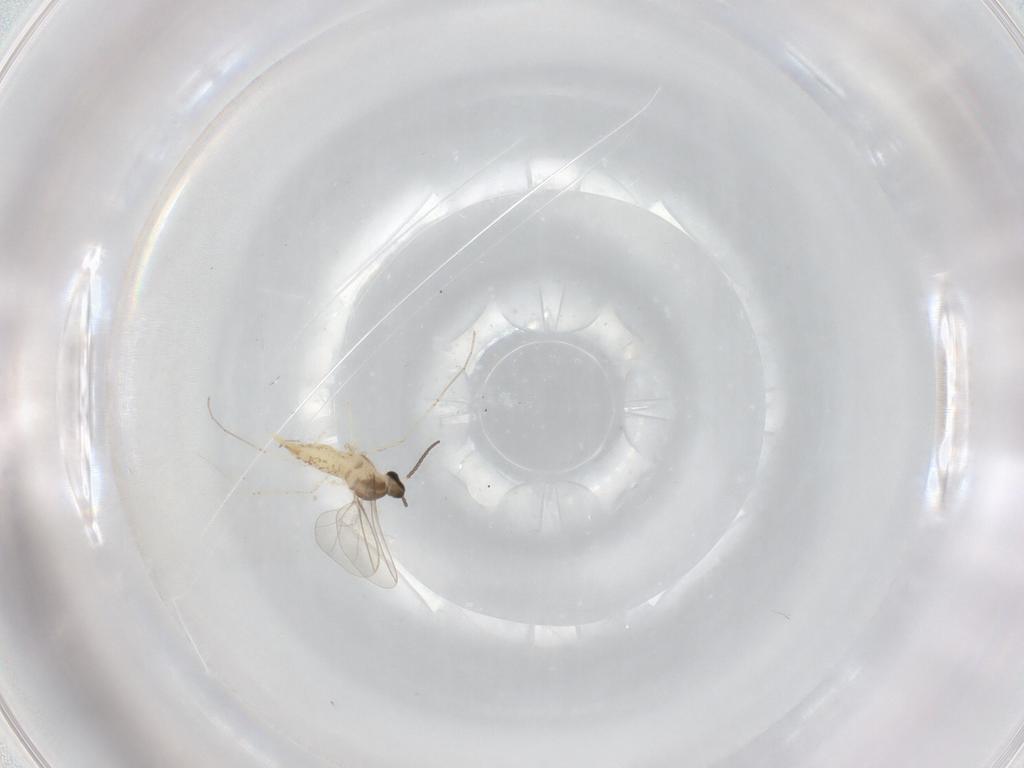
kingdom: Animalia
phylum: Arthropoda
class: Insecta
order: Diptera
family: Cecidomyiidae
